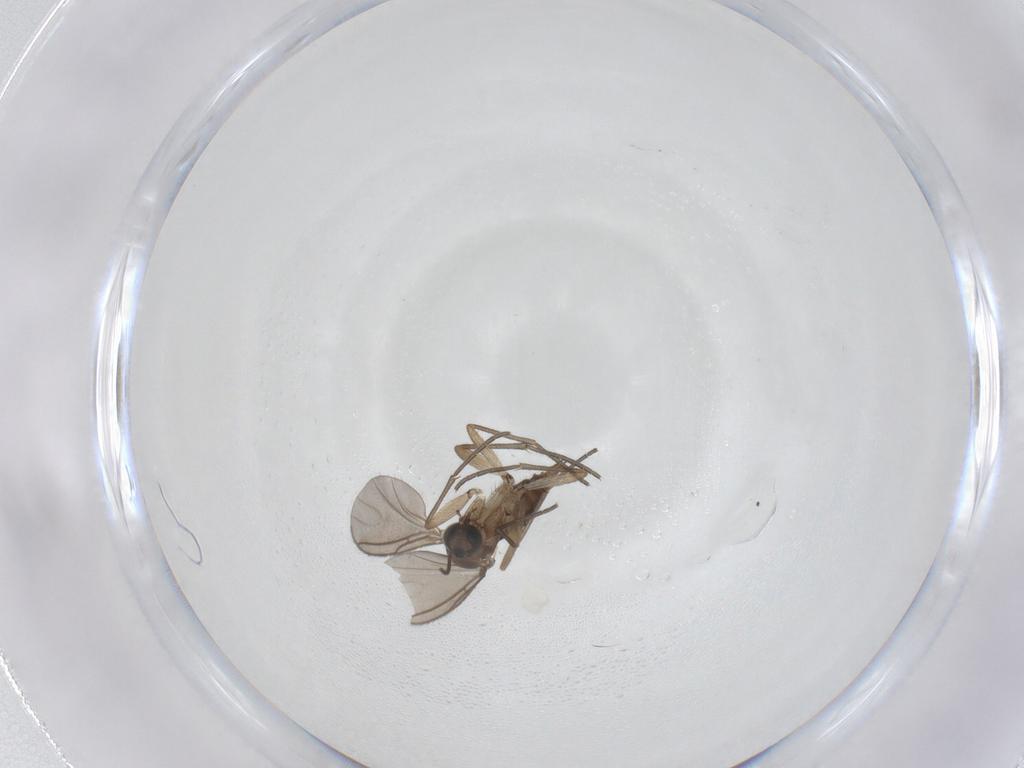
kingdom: Animalia
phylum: Arthropoda
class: Insecta
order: Diptera
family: Sciaridae
